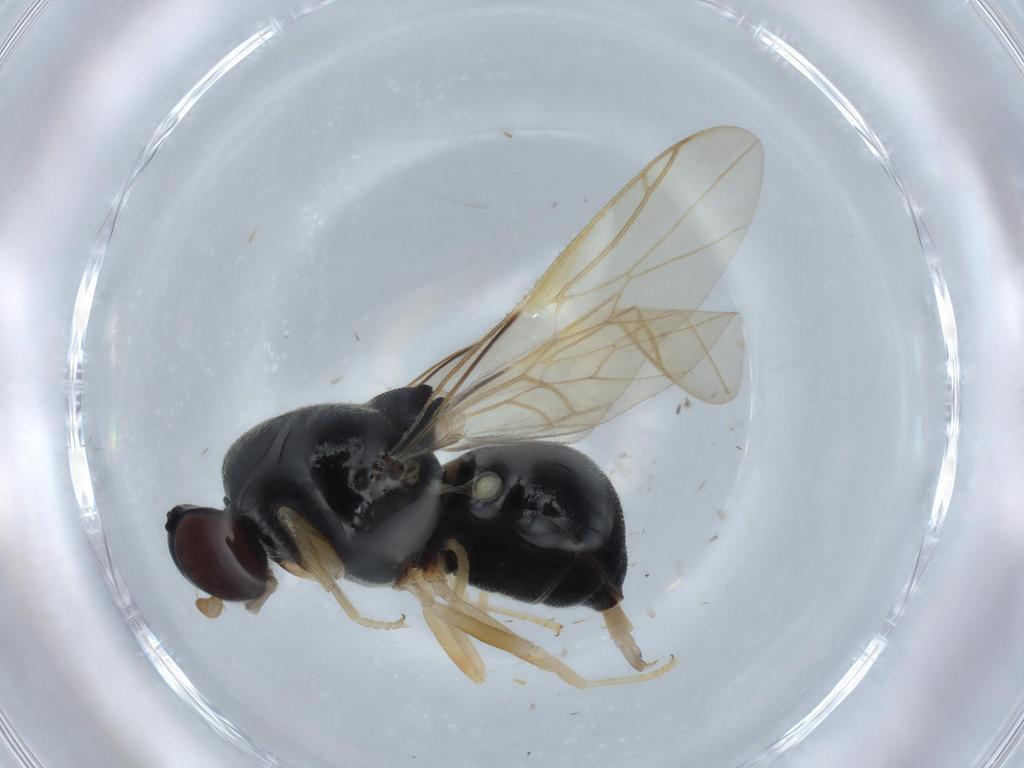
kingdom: Animalia
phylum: Arthropoda
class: Insecta
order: Diptera
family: Stratiomyidae
